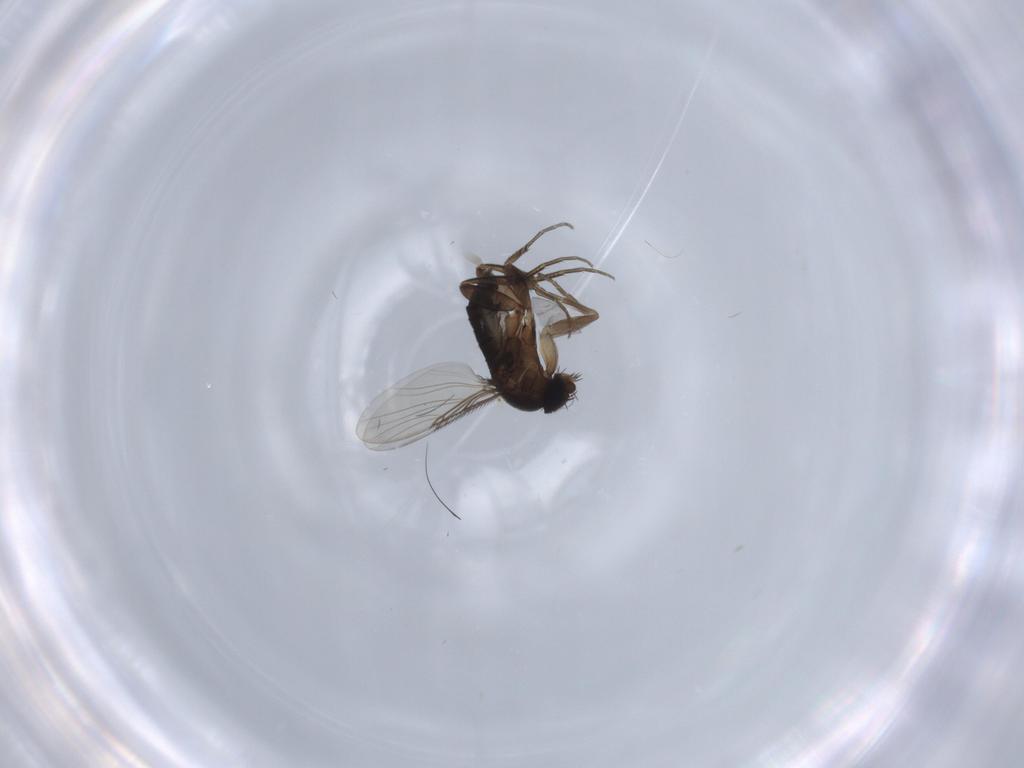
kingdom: Animalia
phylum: Arthropoda
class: Insecta
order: Diptera
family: Phoridae
